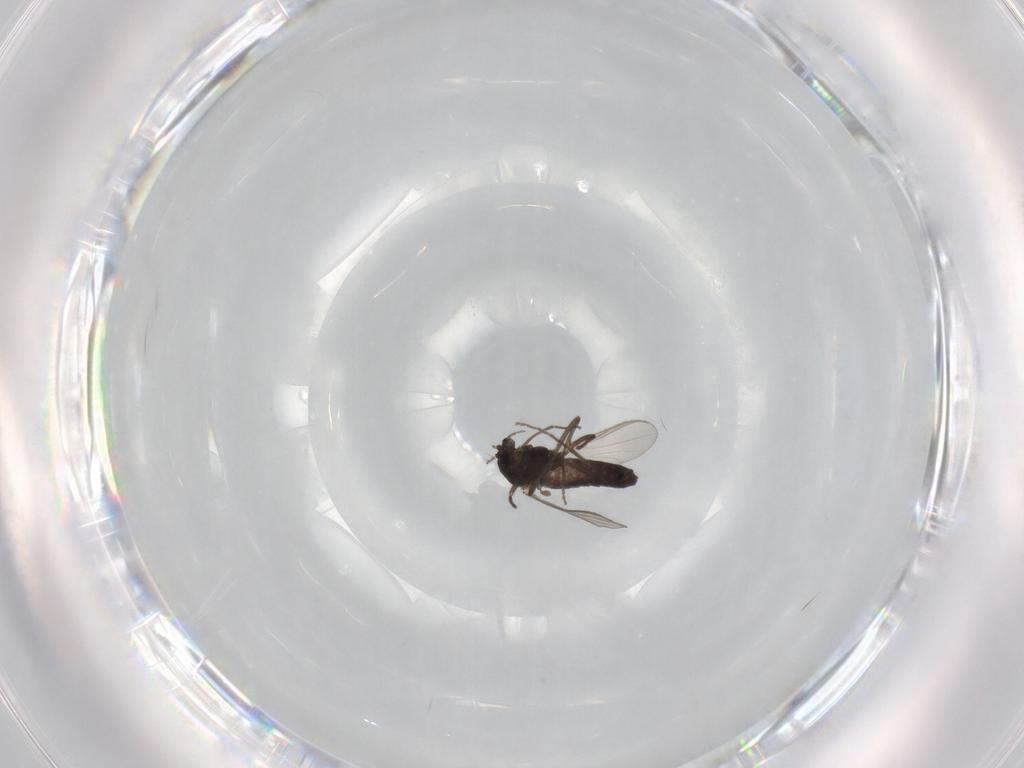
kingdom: Animalia
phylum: Arthropoda
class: Insecta
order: Diptera
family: Chironomidae
